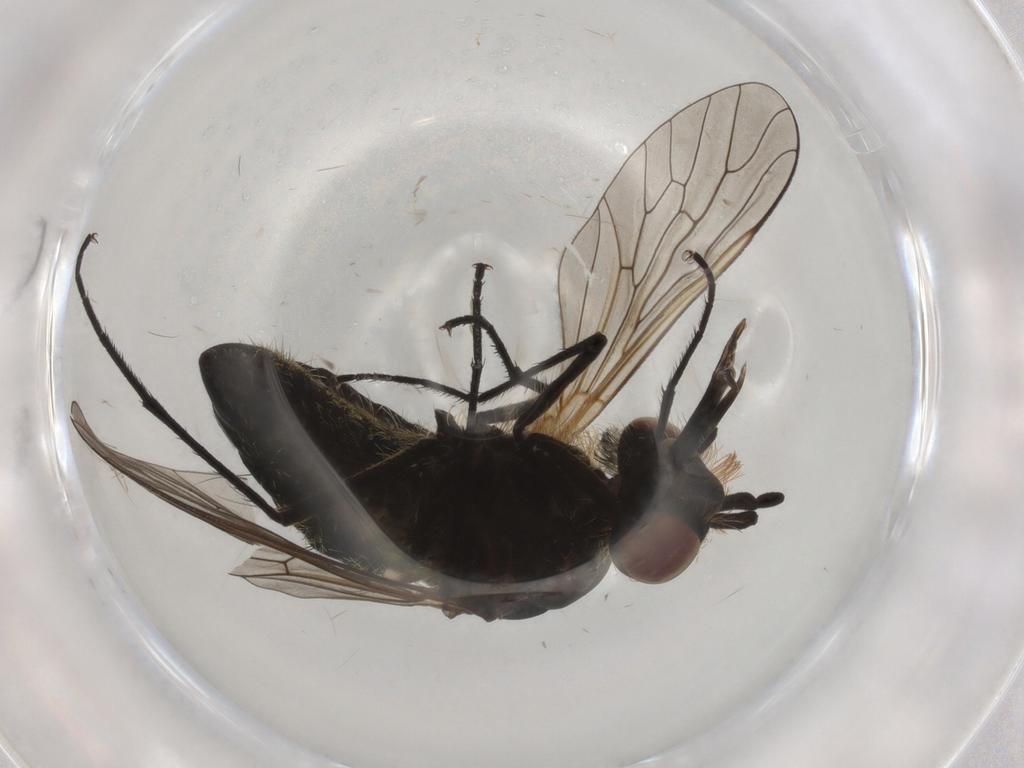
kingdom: Animalia
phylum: Arthropoda
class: Insecta
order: Diptera
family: Bombyliidae
